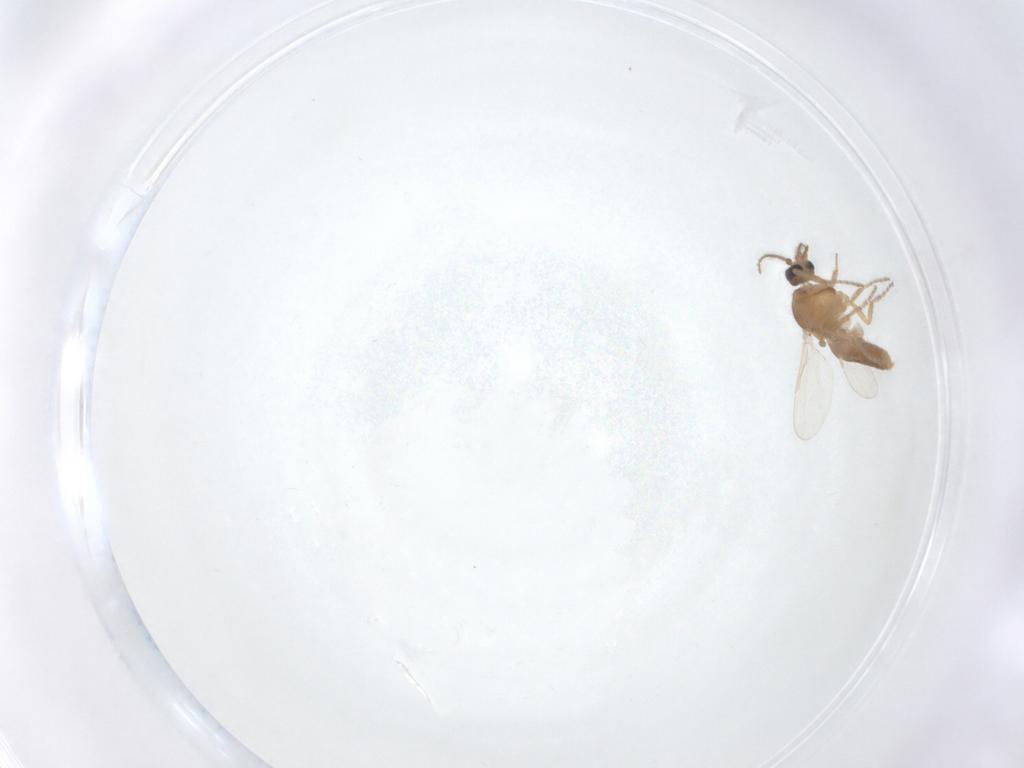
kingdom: Animalia
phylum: Arthropoda
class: Insecta
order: Diptera
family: Ceratopogonidae
